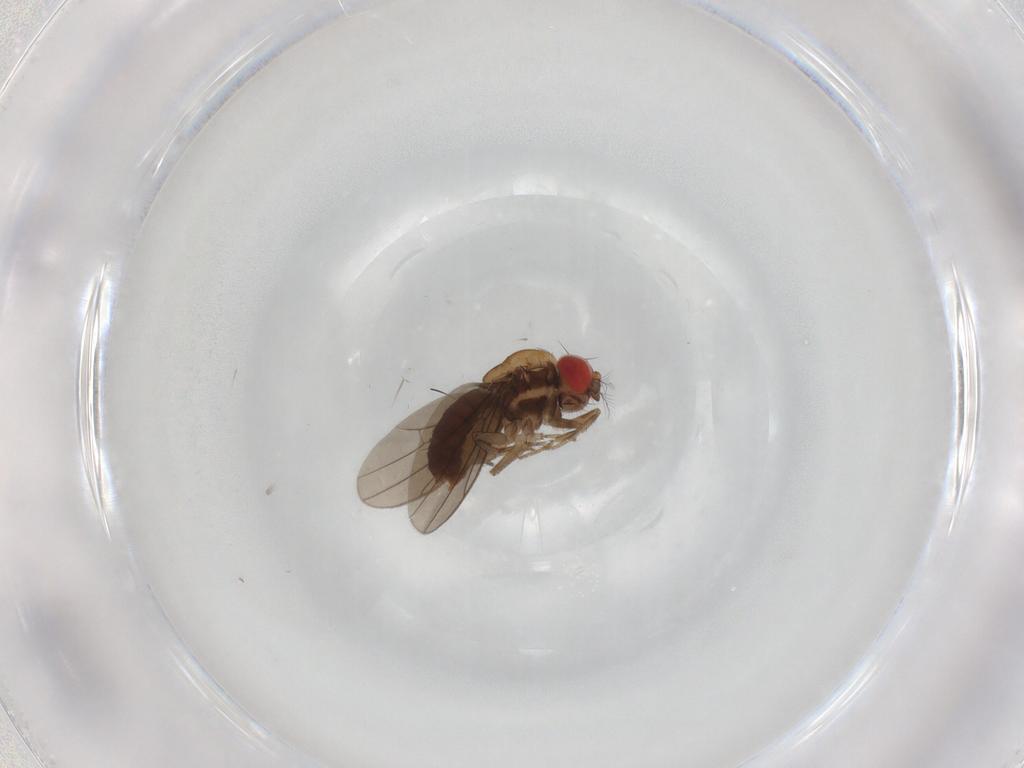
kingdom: Animalia
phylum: Arthropoda
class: Insecta
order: Diptera
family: Drosophilidae
